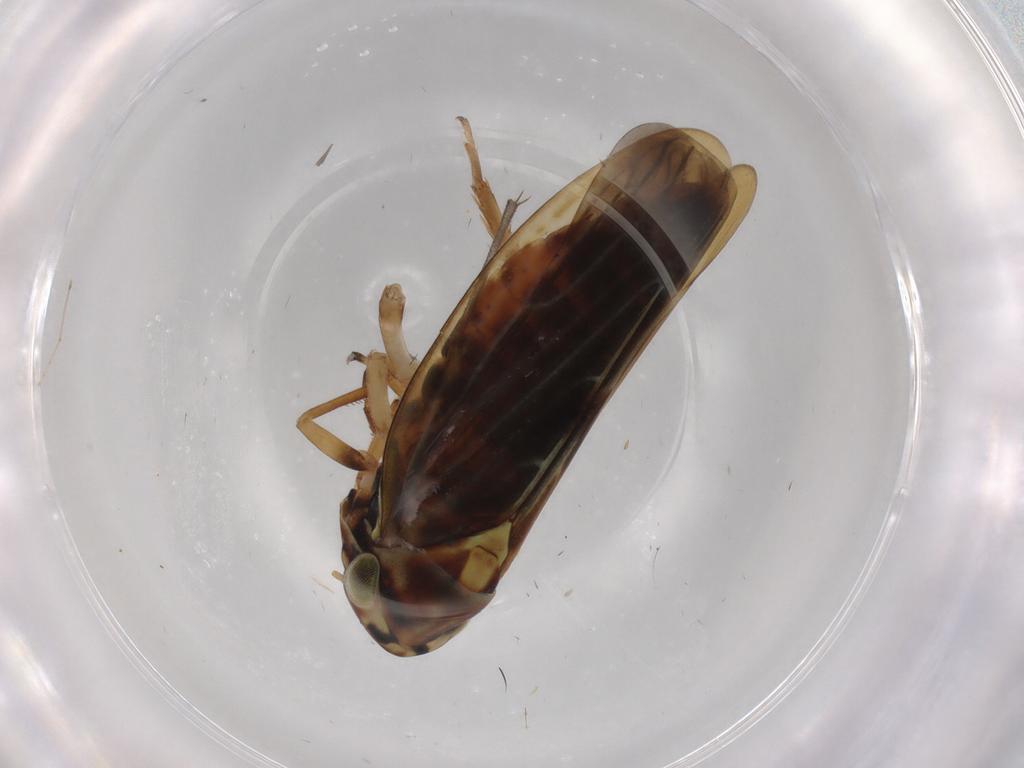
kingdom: Animalia
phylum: Arthropoda
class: Insecta
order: Hemiptera
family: Cicadellidae
